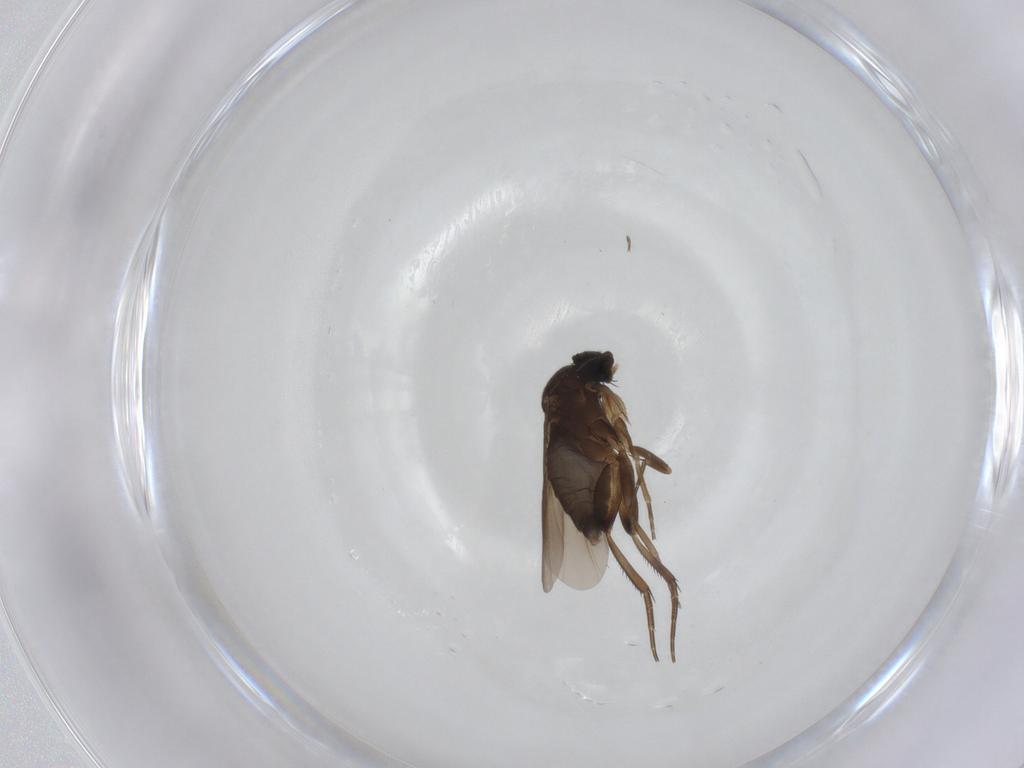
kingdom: Animalia
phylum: Arthropoda
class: Insecta
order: Diptera
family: Phoridae
